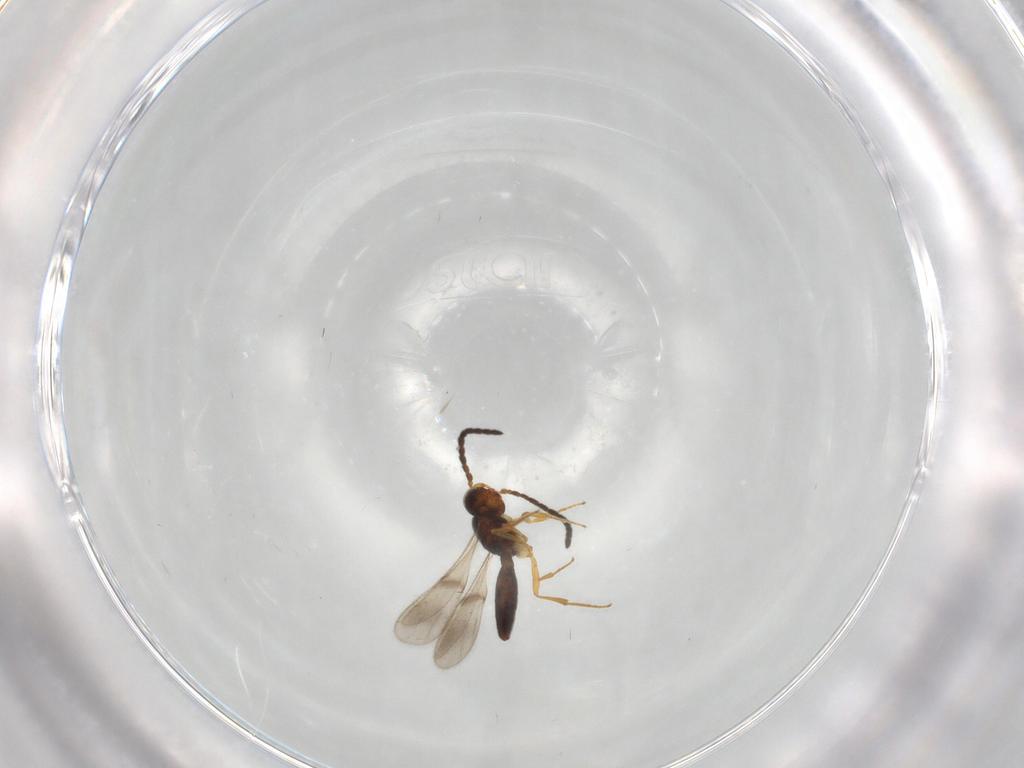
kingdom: Animalia
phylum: Arthropoda
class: Insecta
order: Hymenoptera
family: Scelionidae
